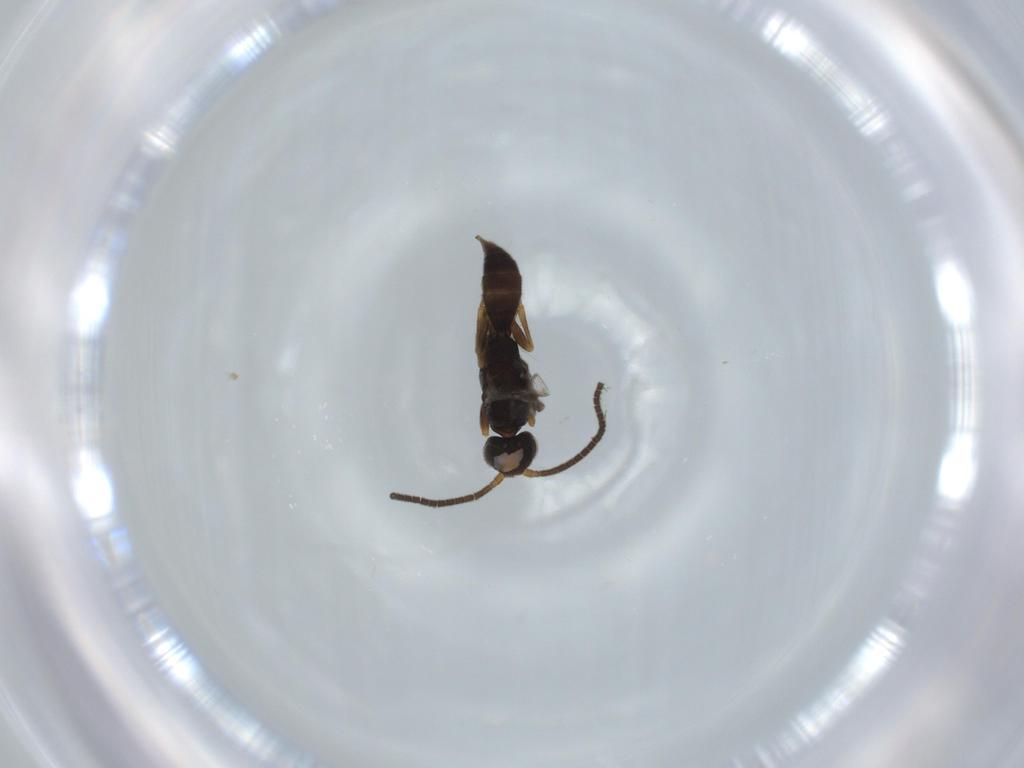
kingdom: Animalia
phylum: Arthropoda
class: Insecta
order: Hymenoptera
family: Sclerogibbidae
